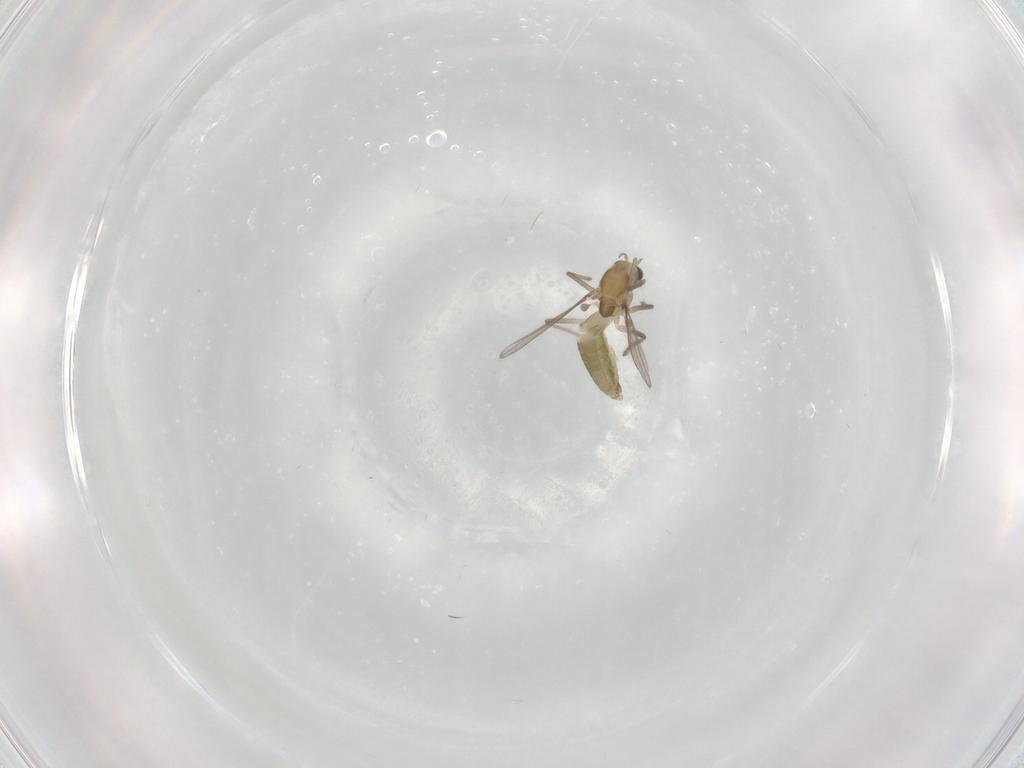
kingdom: Animalia
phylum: Arthropoda
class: Insecta
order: Diptera
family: Chironomidae
